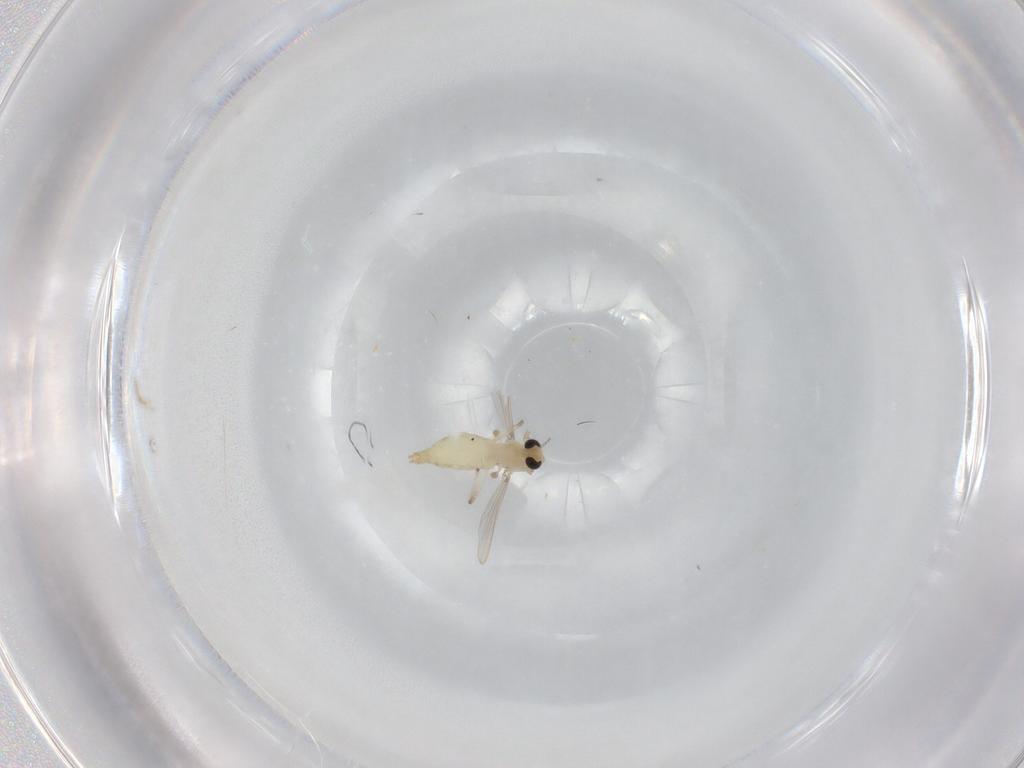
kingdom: Animalia
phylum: Arthropoda
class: Insecta
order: Diptera
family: Chironomidae
